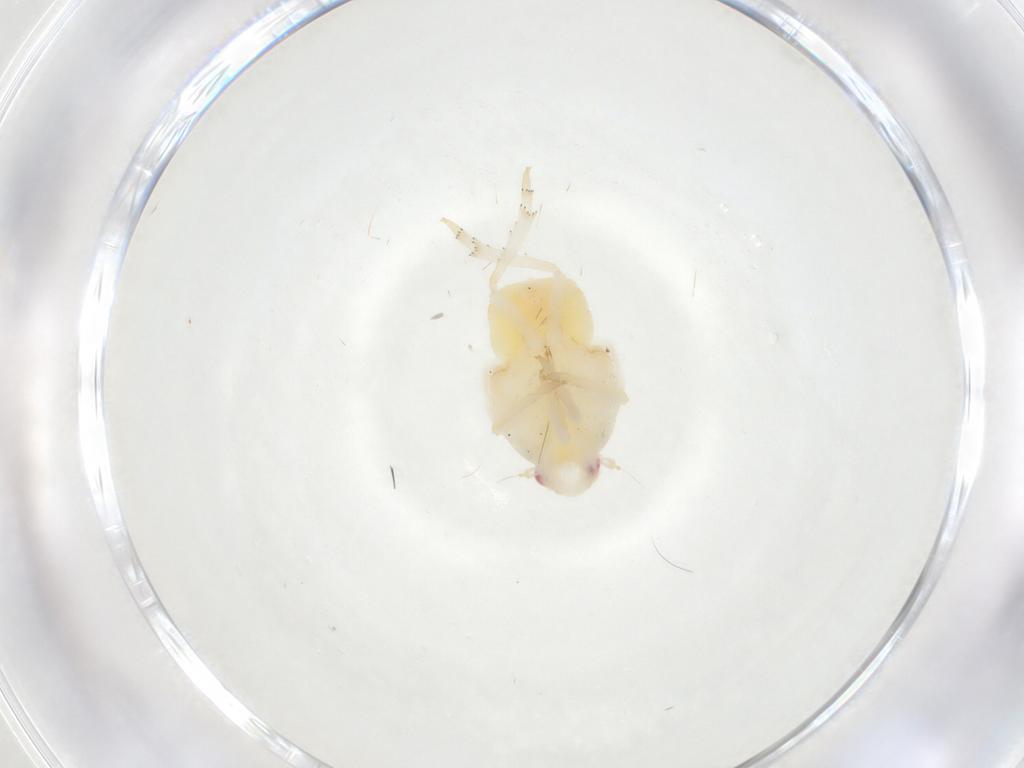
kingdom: Animalia
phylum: Arthropoda
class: Insecta
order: Hemiptera
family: Flatidae
